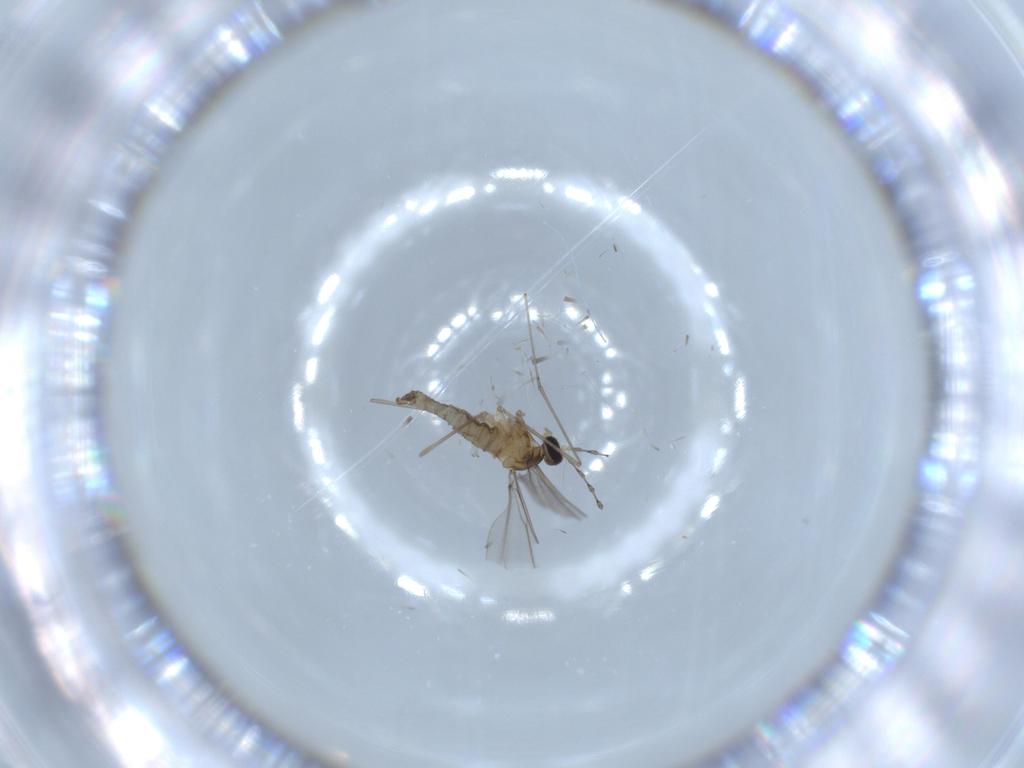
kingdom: Animalia
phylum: Arthropoda
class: Insecta
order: Diptera
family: Cecidomyiidae
